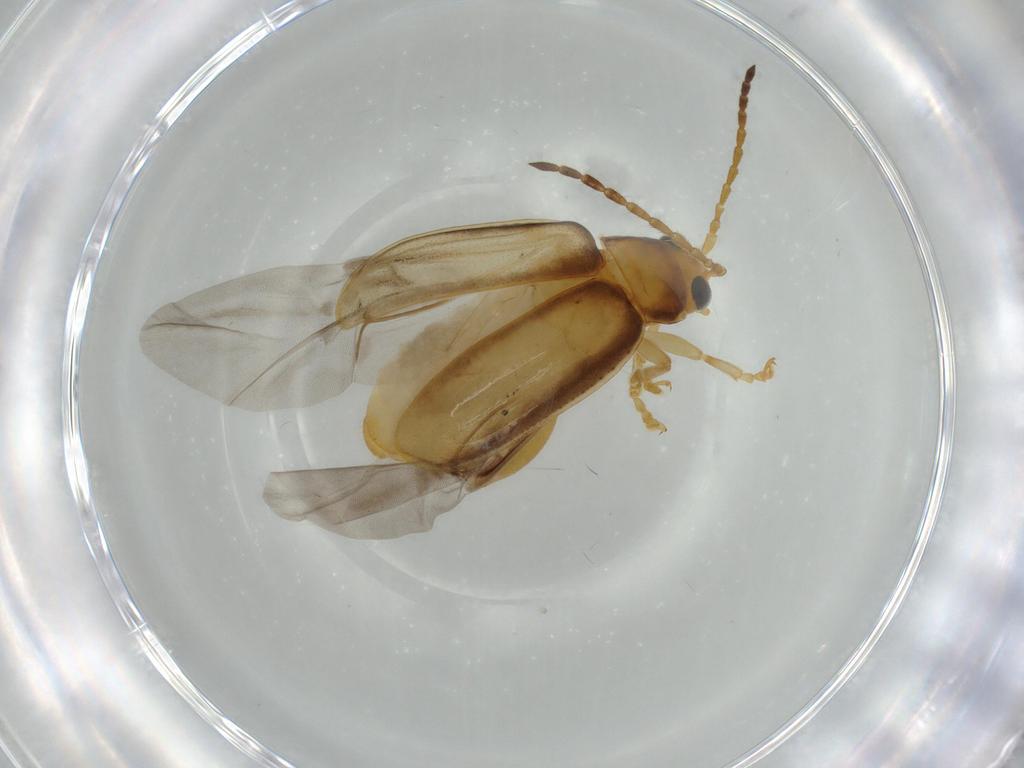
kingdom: Animalia
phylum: Arthropoda
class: Insecta
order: Coleoptera
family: Chrysomelidae
